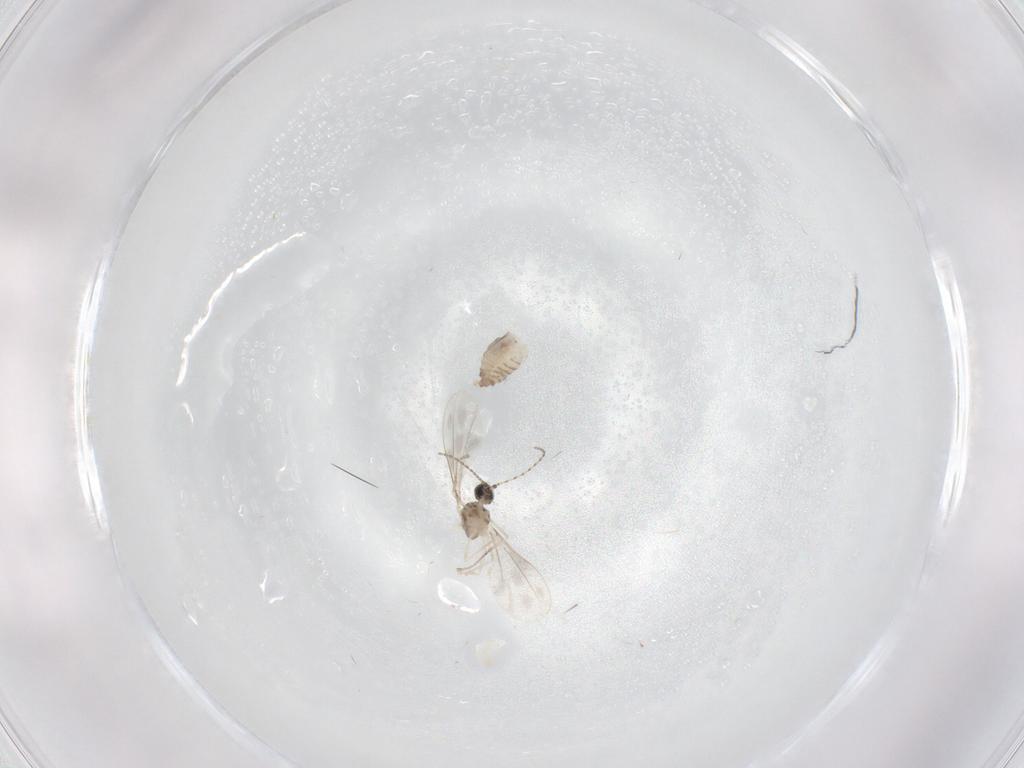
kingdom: Animalia
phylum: Arthropoda
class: Insecta
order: Diptera
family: Cecidomyiidae
